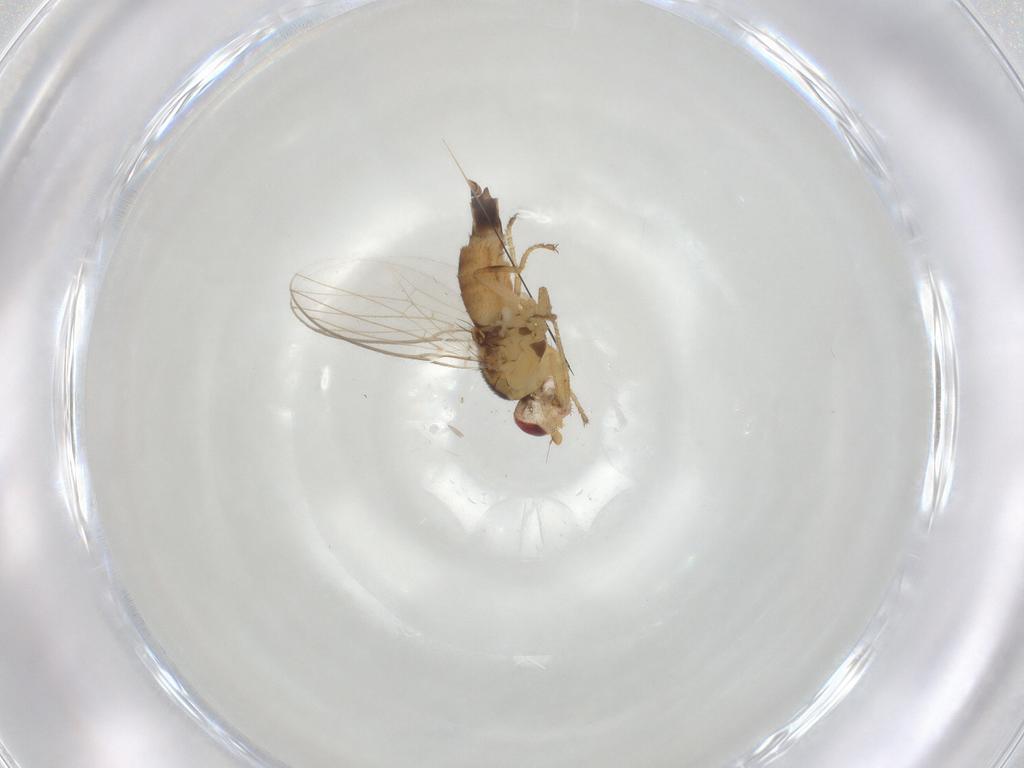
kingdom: Animalia
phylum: Arthropoda
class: Insecta
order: Diptera
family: Chloropidae
